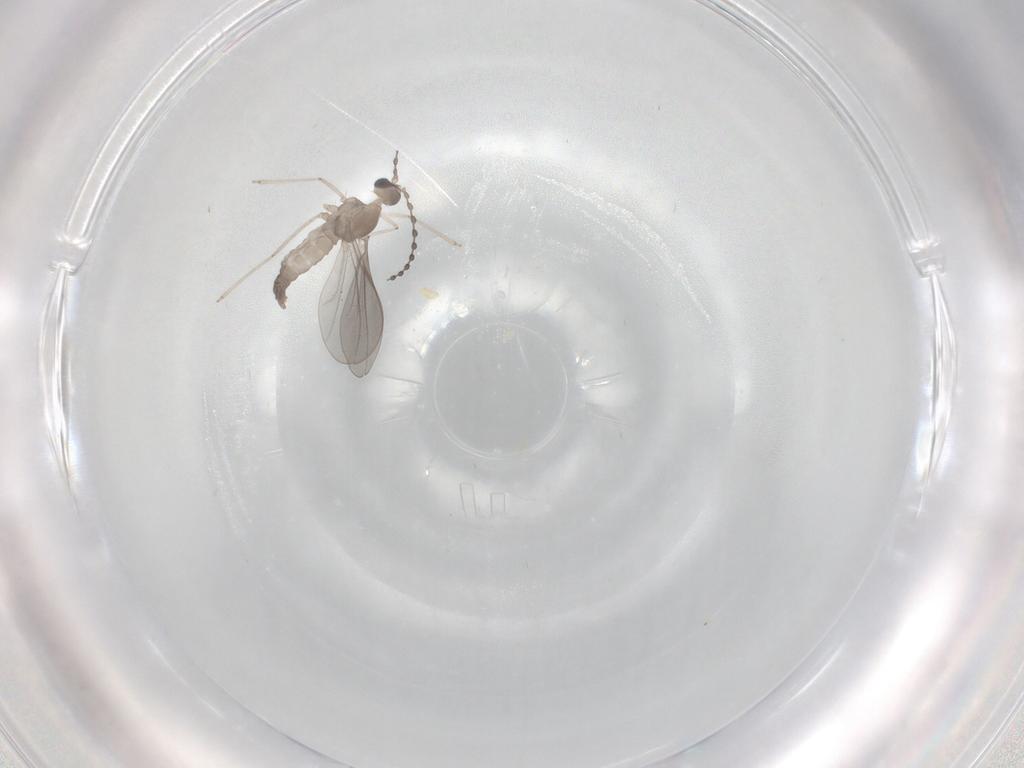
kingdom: Animalia
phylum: Arthropoda
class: Insecta
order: Diptera
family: Cecidomyiidae
